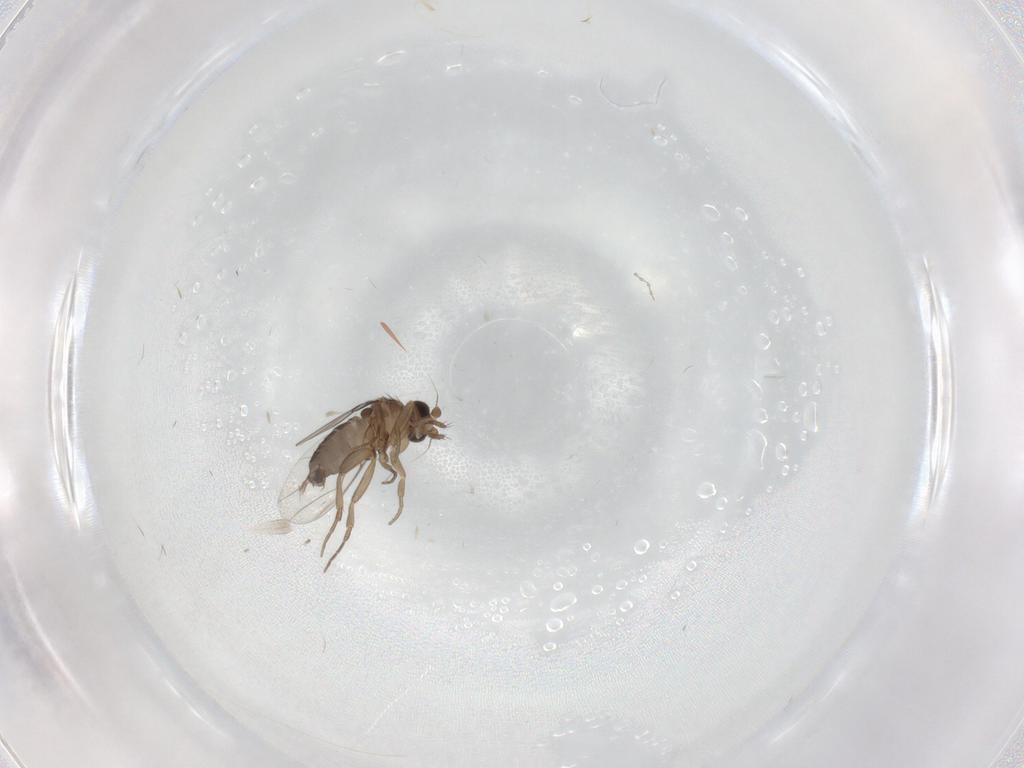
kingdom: Animalia
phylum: Arthropoda
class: Insecta
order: Diptera
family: Phoridae
